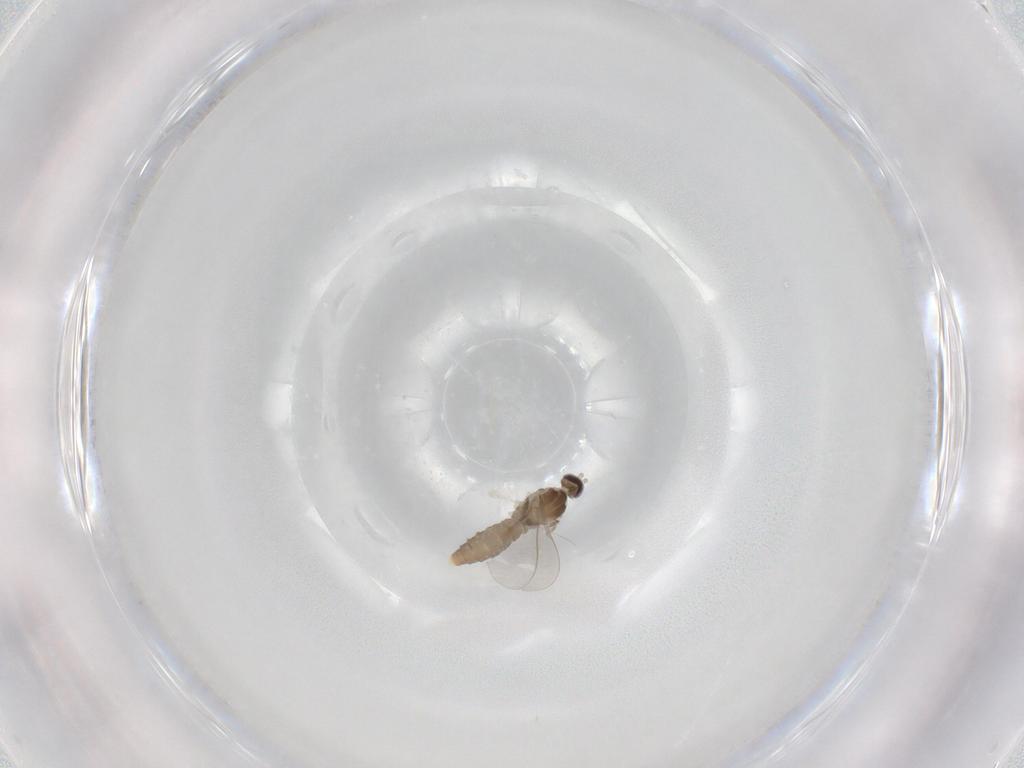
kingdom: Animalia
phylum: Arthropoda
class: Insecta
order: Diptera
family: Cecidomyiidae
